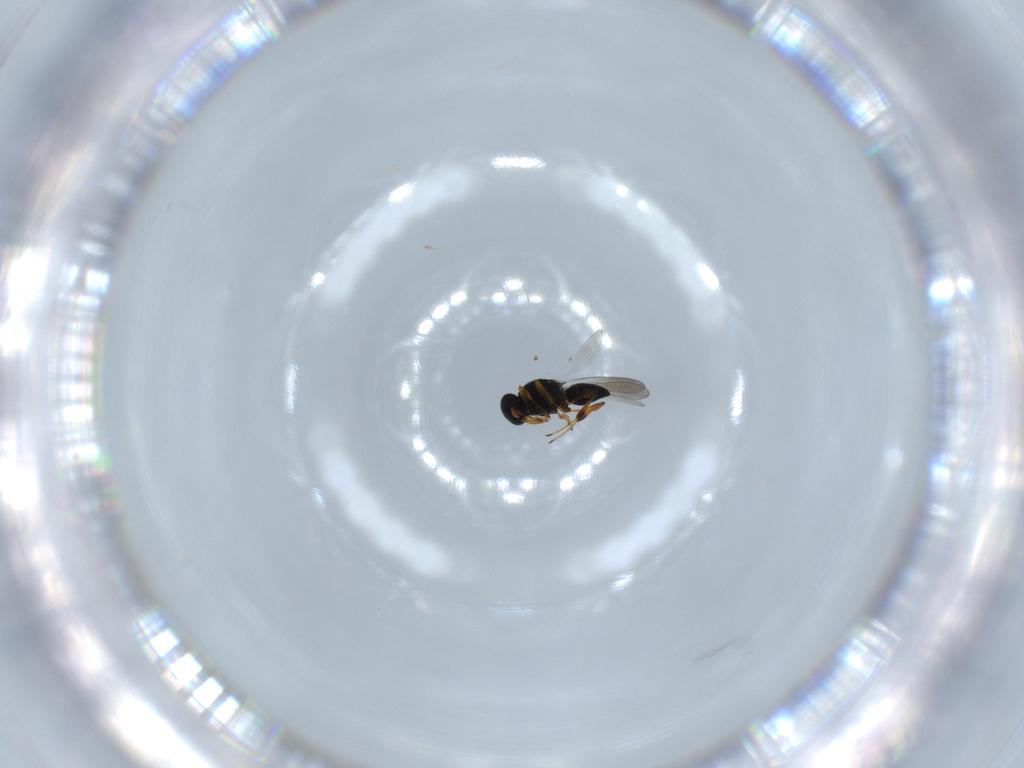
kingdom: Animalia
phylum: Arthropoda
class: Insecta
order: Hymenoptera
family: Platygastridae
